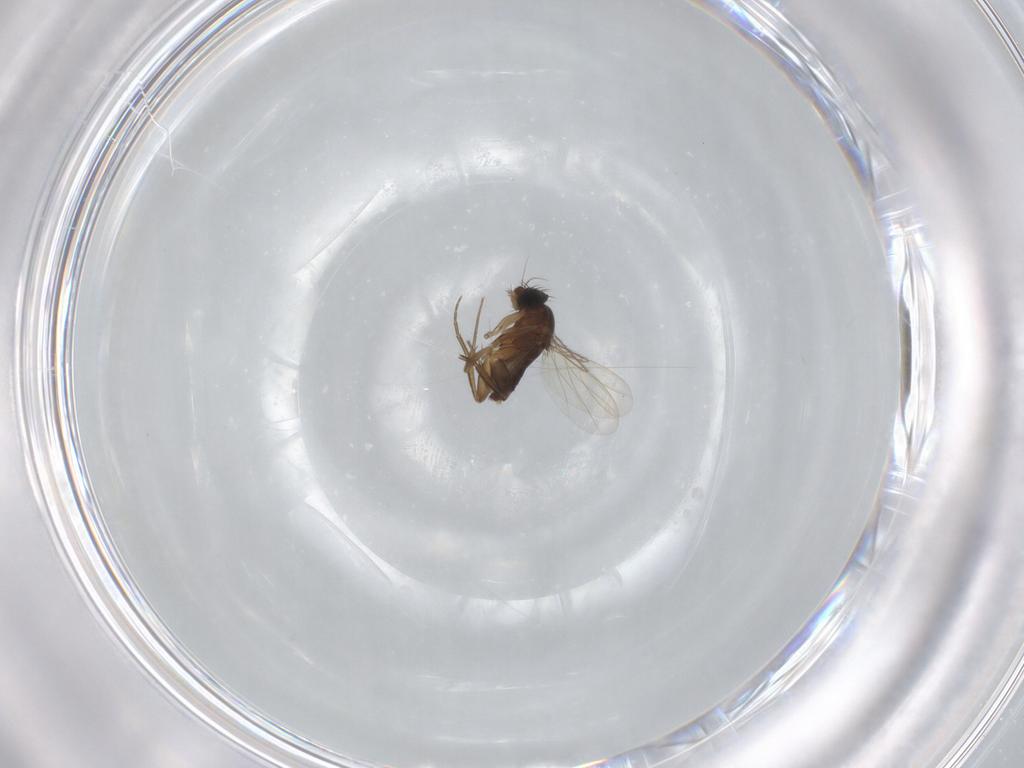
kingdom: Animalia
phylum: Arthropoda
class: Insecta
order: Diptera
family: Phoridae
